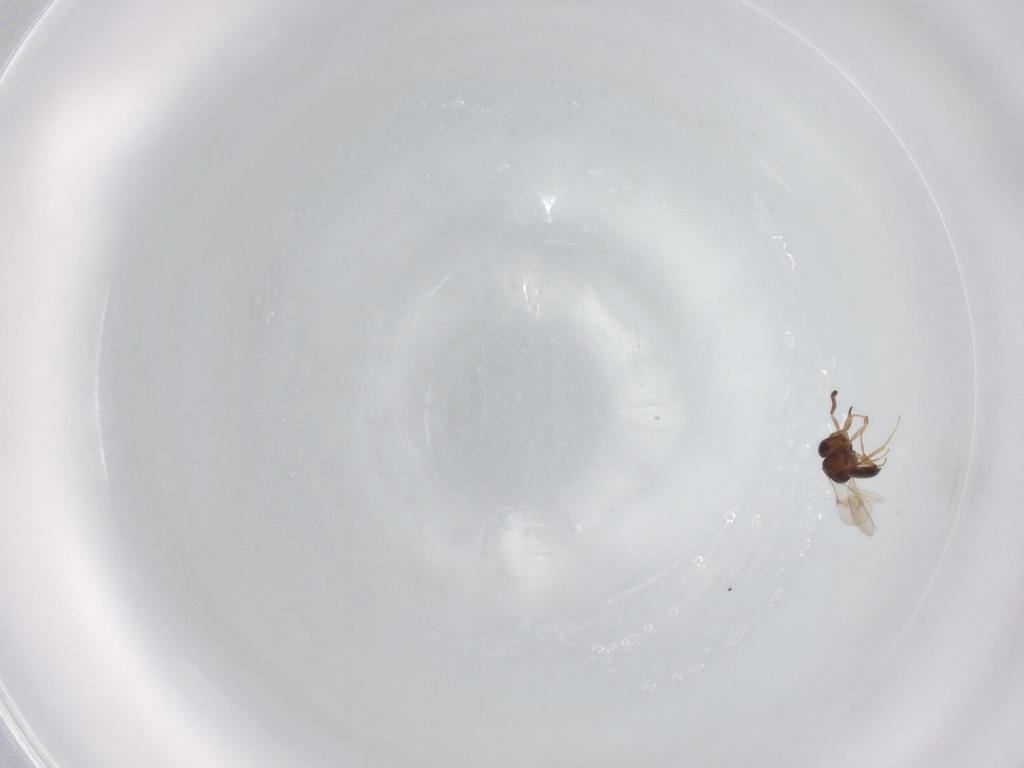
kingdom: Animalia
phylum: Arthropoda
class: Insecta
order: Hymenoptera
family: Scelionidae
